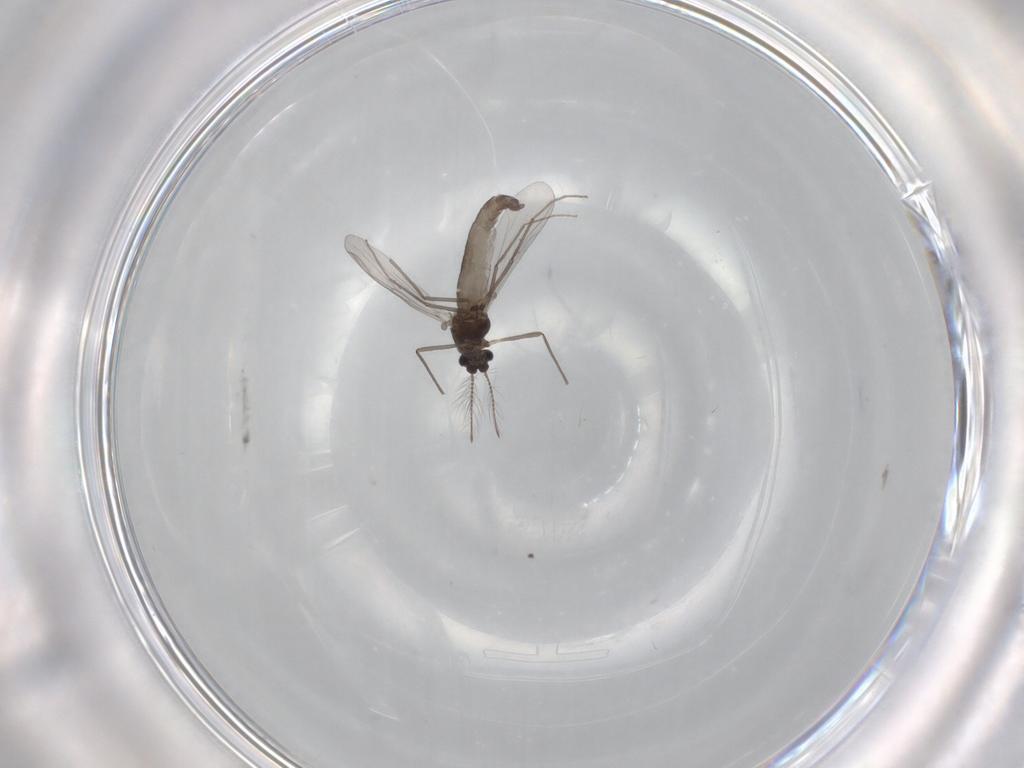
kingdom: Animalia
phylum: Arthropoda
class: Insecta
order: Diptera
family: Chironomidae
